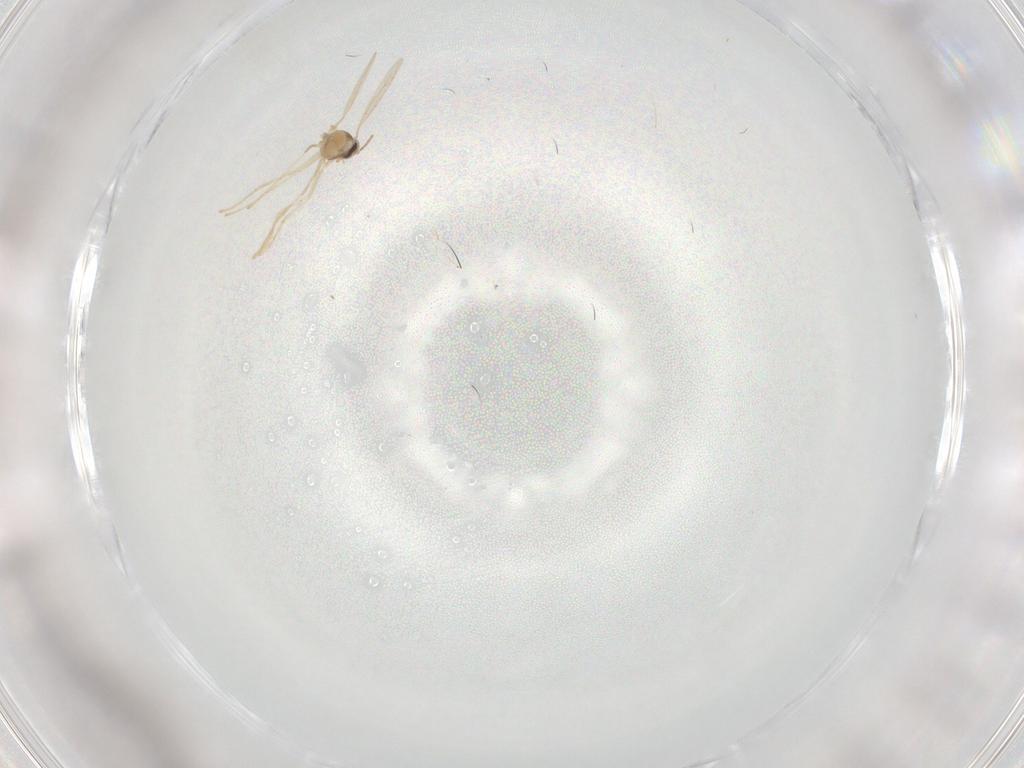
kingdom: Animalia
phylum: Arthropoda
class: Insecta
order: Diptera
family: Cecidomyiidae
